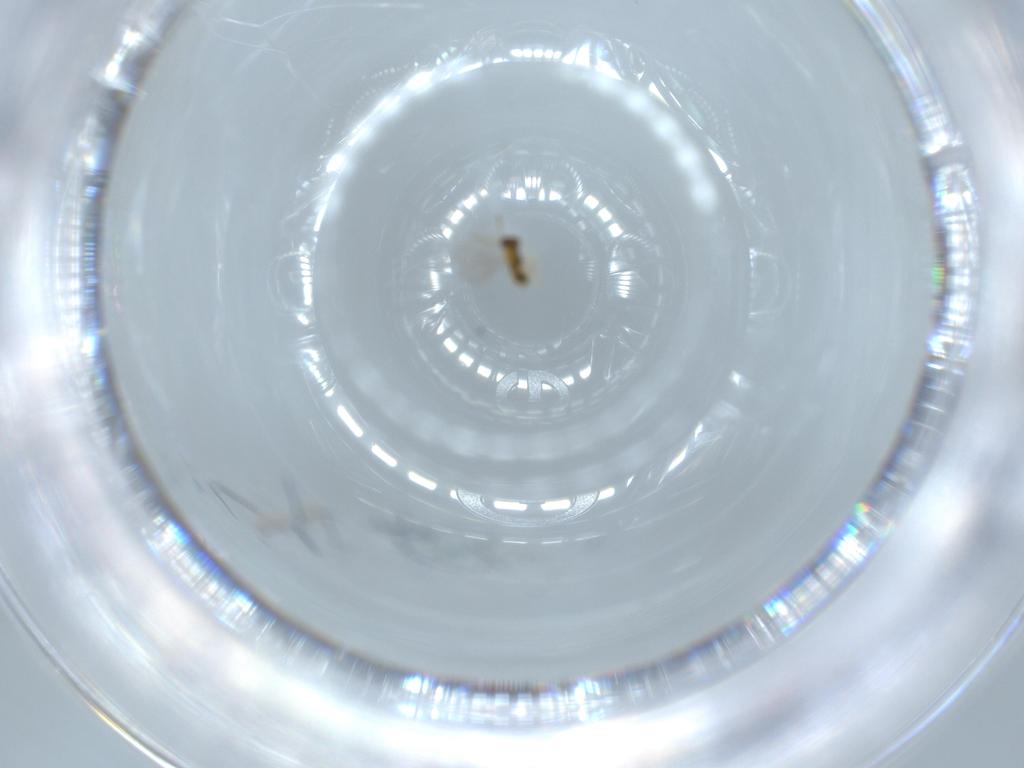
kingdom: Animalia
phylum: Arthropoda
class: Insecta
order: Hymenoptera
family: Aphelinidae
